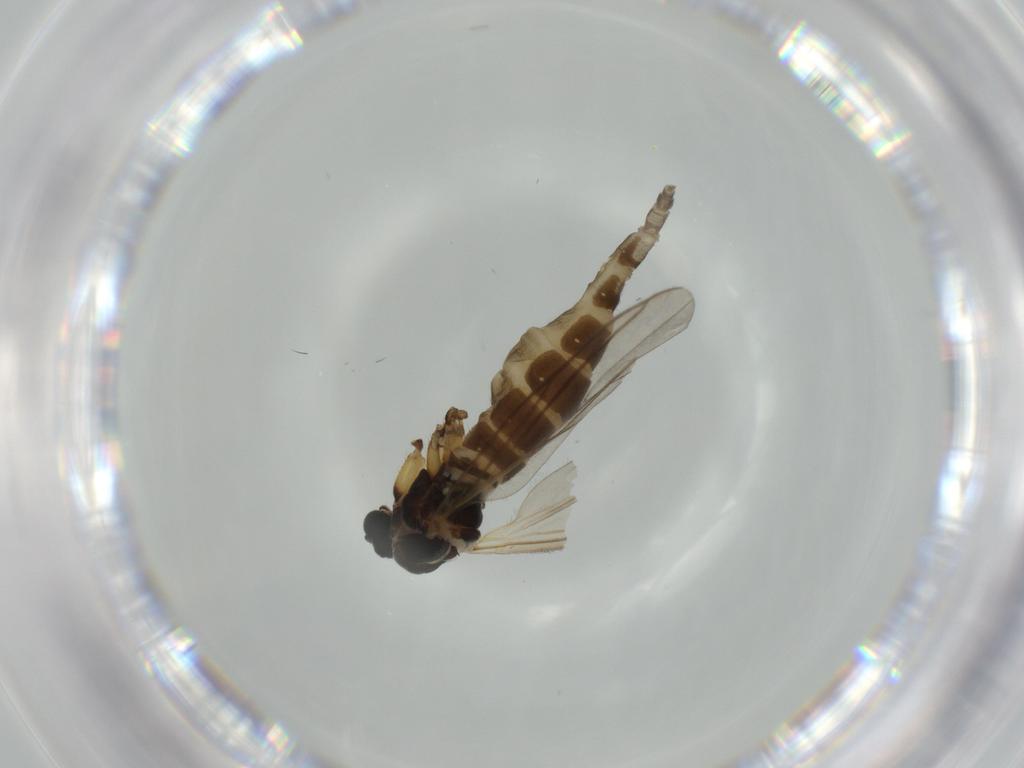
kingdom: Animalia
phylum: Arthropoda
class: Insecta
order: Diptera
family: Sciaridae
